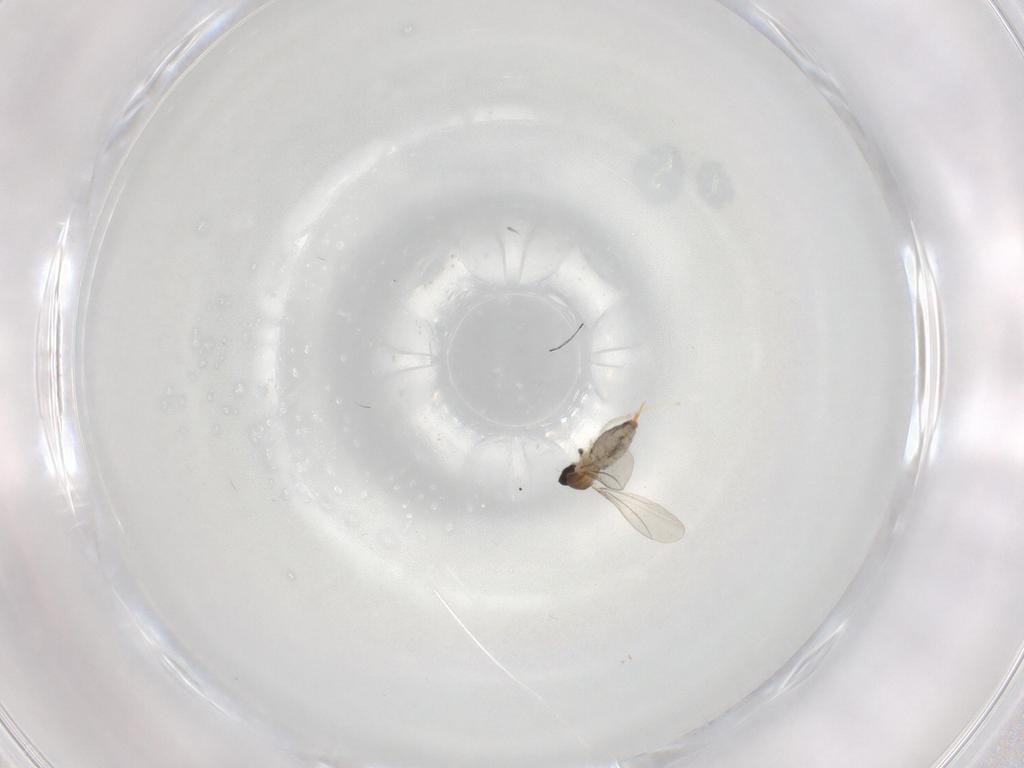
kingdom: Animalia
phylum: Arthropoda
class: Insecta
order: Diptera
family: Cecidomyiidae
